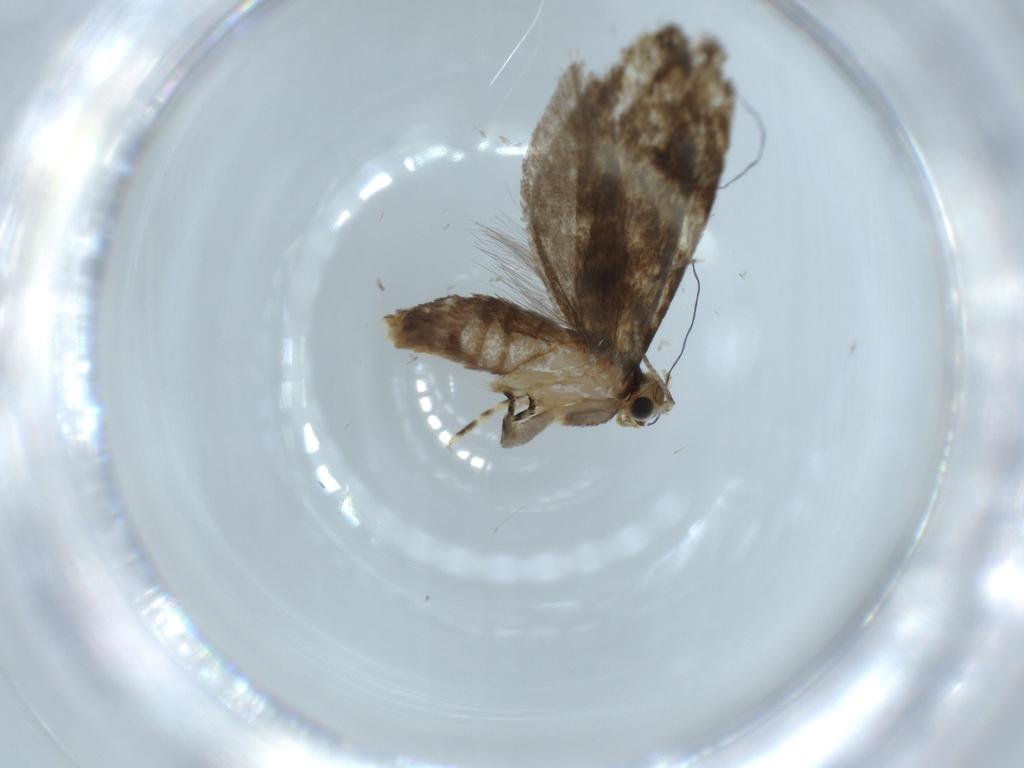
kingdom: Animalia
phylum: Arthropoda
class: Insecta
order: Lepidoptera
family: Tineidae
